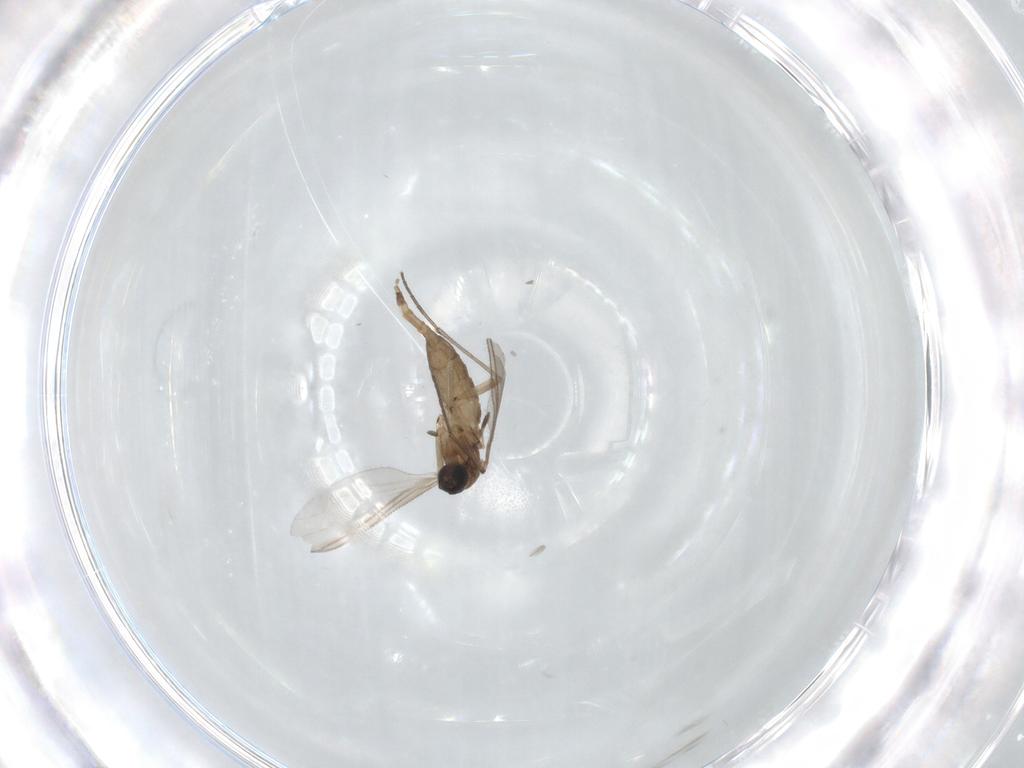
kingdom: Animalia
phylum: Arthropoda
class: Insecta
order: Diptera
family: Sciaridae
